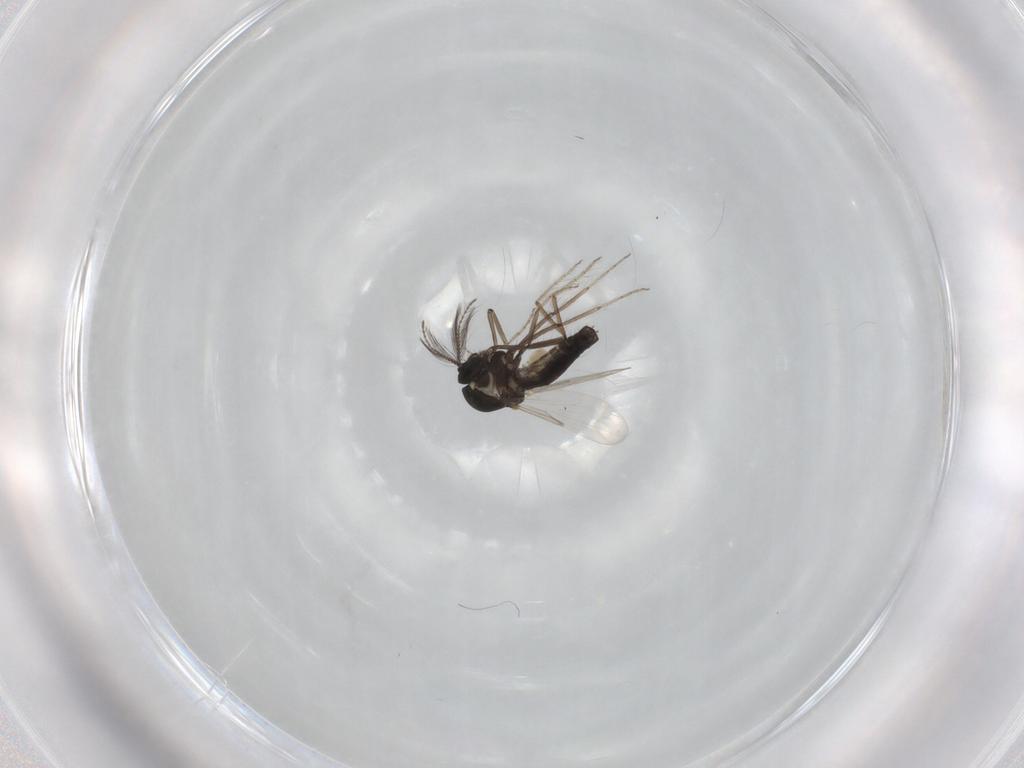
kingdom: Animalia
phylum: Arthropoda
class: Insecta
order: Diptera
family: Ceratopogonidae
